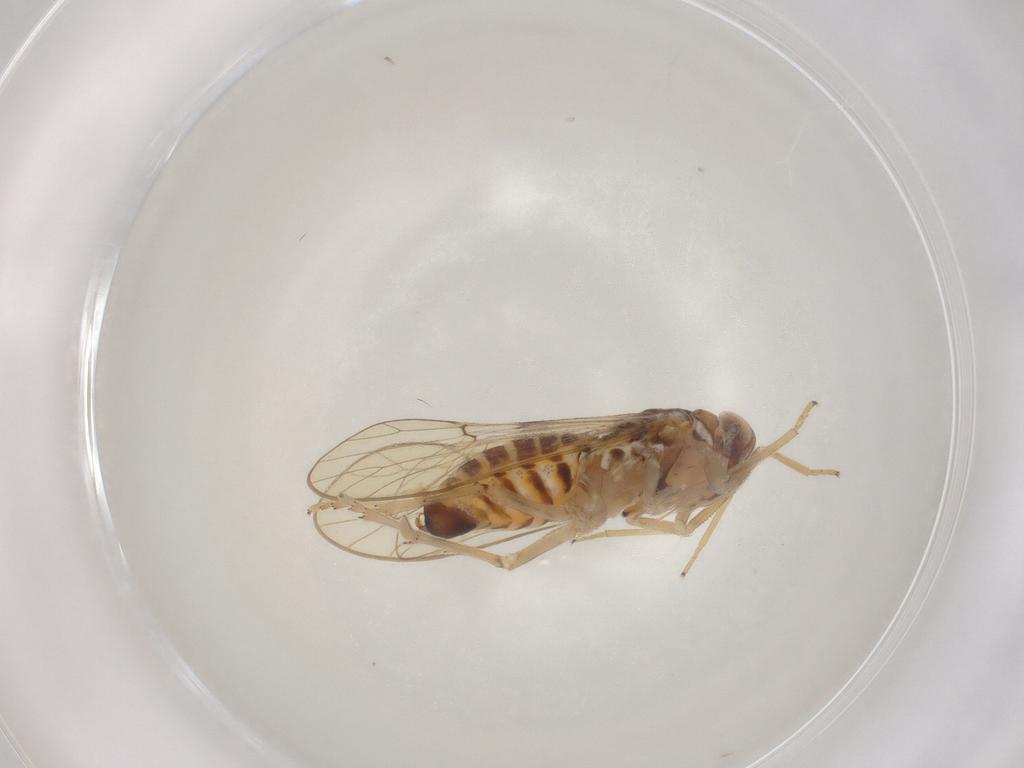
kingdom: Animalia
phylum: Arthropoda
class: Insecta
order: Hemiptera
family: Delphacidae
